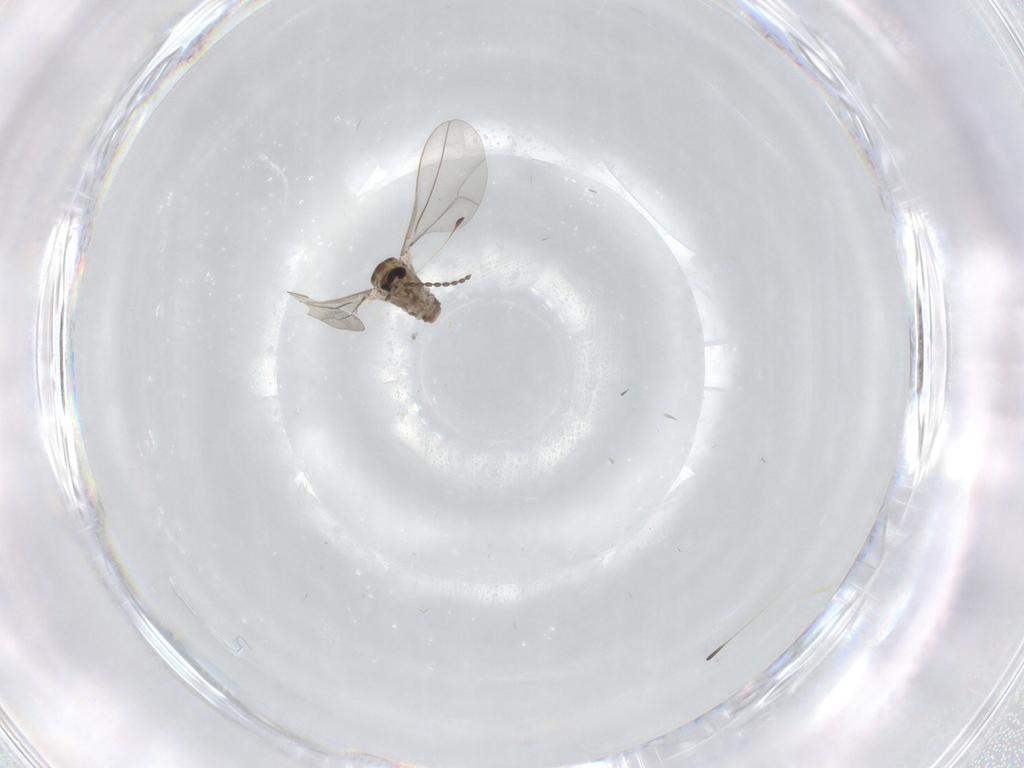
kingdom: Animalia
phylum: Arthropoda
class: Insecta
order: Diptera
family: Cecidomyiidae
